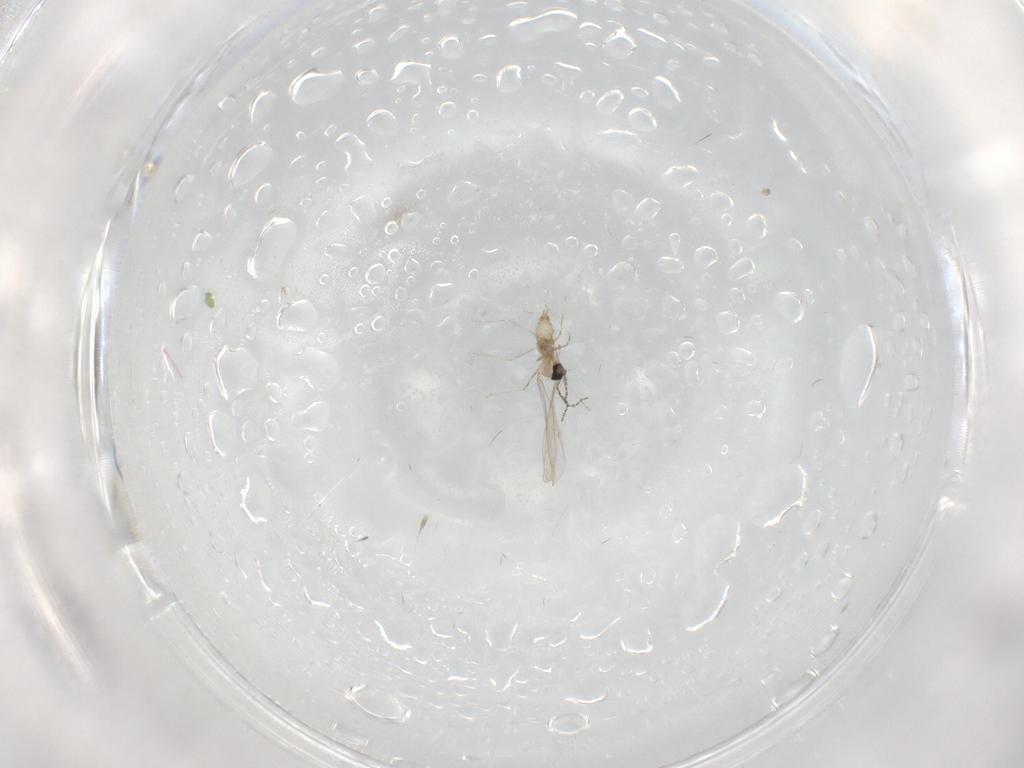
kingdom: Animalia
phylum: Arthropoda
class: Insecta
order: Diptera
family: Cecidomyiidae
